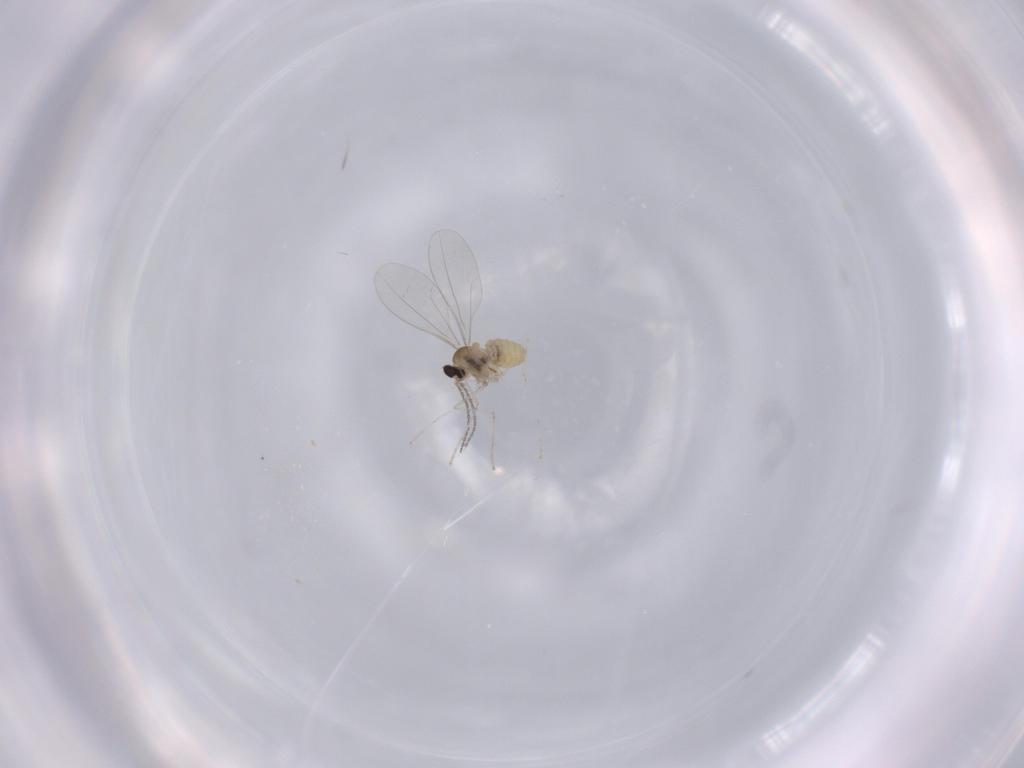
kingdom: Animalia
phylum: Arthropoda
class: Insecta
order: Diptera
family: Cecidomyiidae
